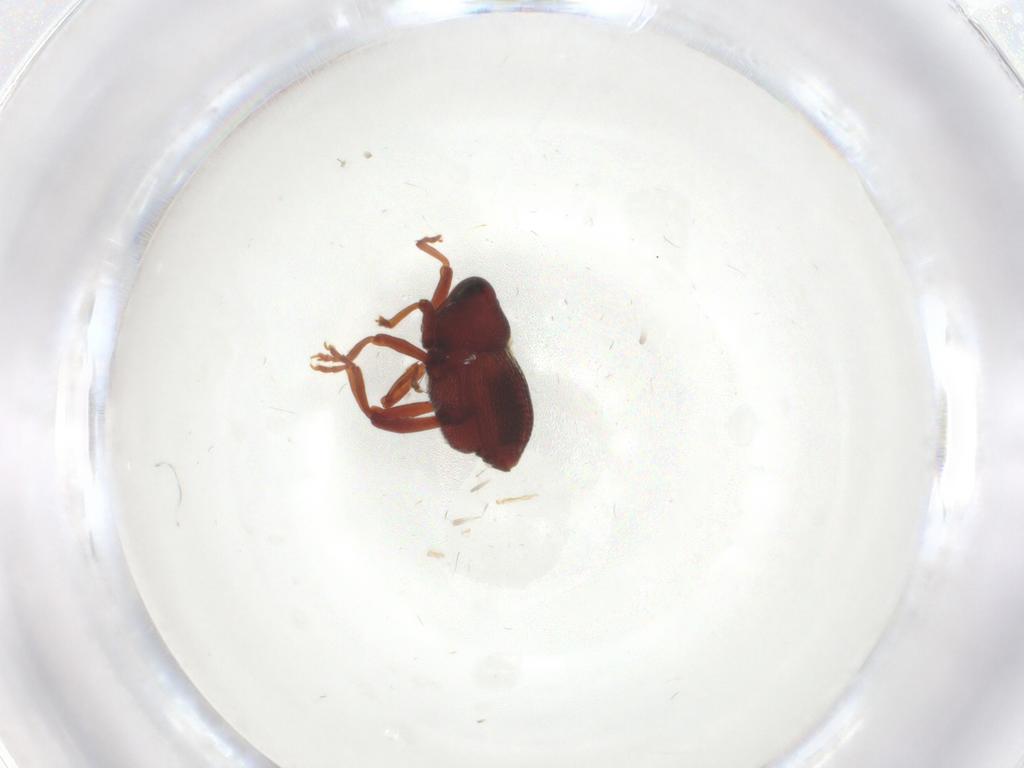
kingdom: Animalia
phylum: Arthropoda
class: Insecta
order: Coleoptera
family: Curculionidae
